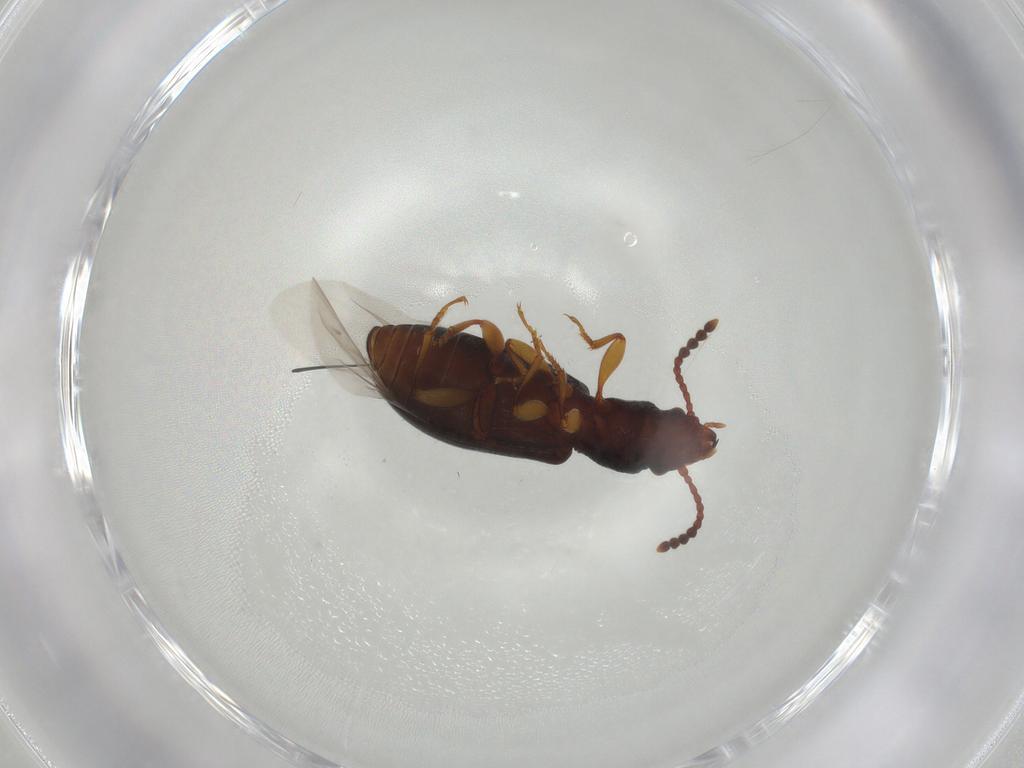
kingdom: Animalia
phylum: Arthropoda
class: Insecta
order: Coleoptera
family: Salpingidae
